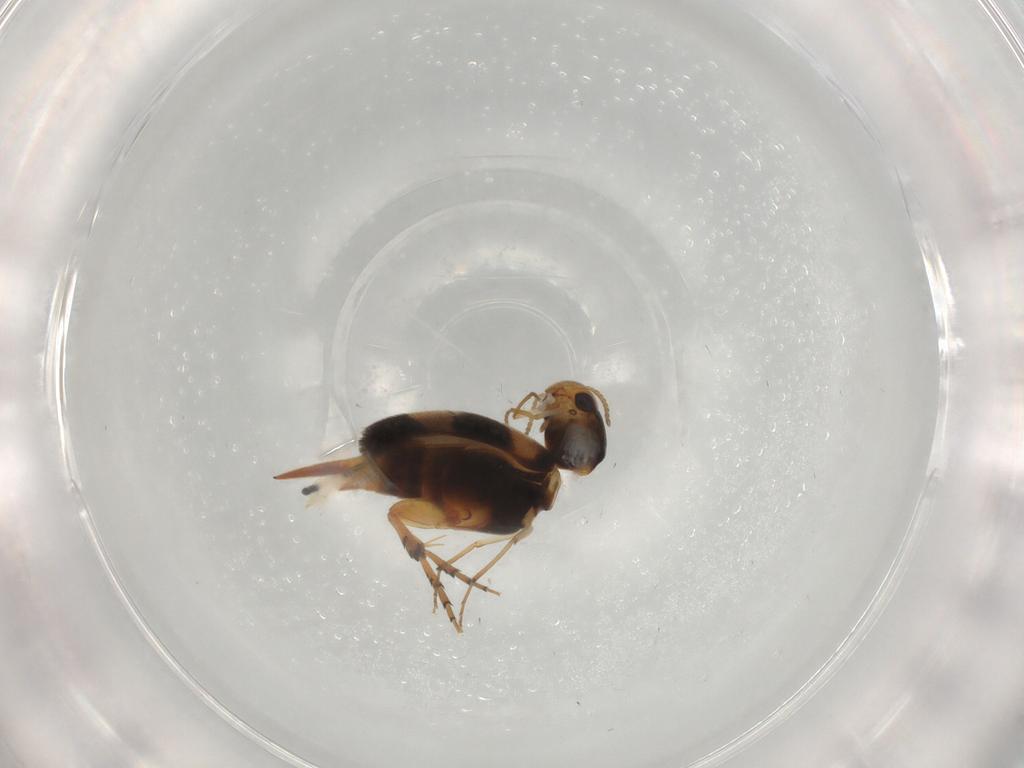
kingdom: Animalia
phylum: Arthropoda
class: Insecta
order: Coleoptera
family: Mordellidae
